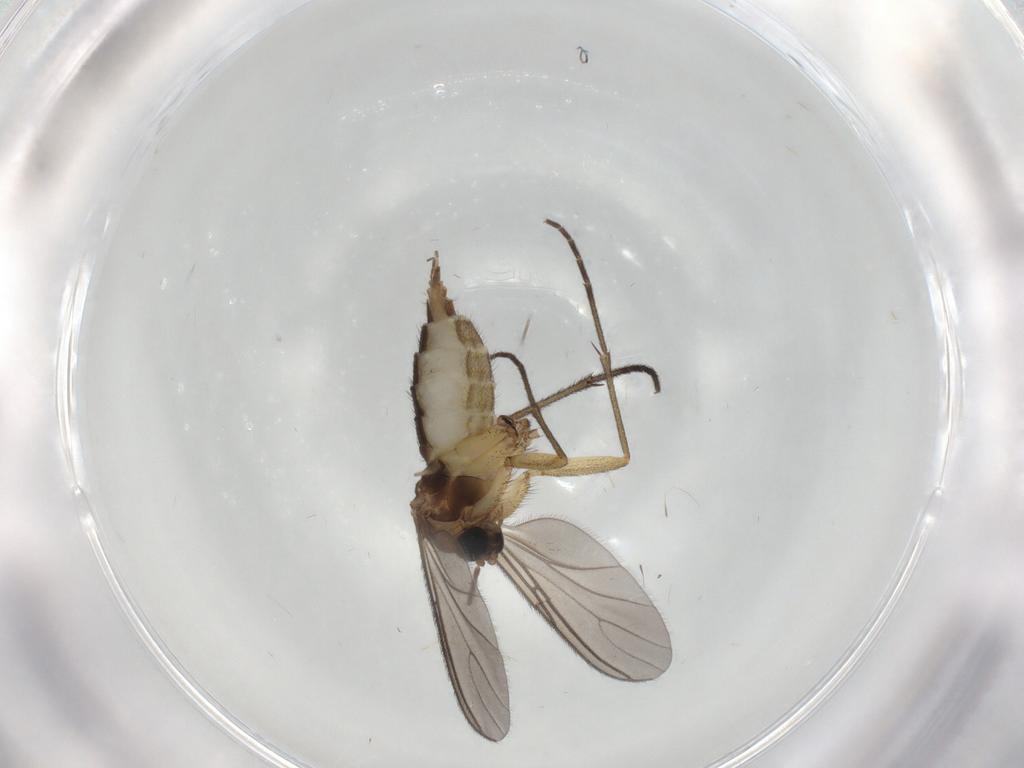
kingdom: Animalia
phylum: Arthropoda
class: Insecta
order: Diptera
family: Sciaridae
